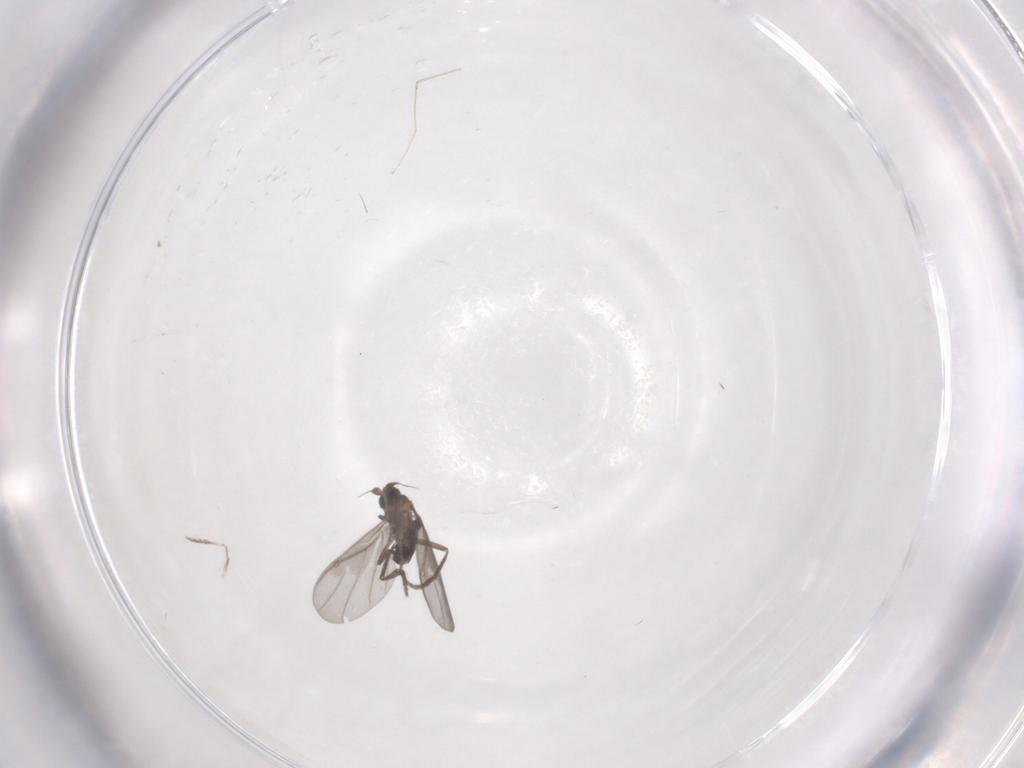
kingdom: Animalia
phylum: Arthropoda
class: Insecta
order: Diptera
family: Phoridae
